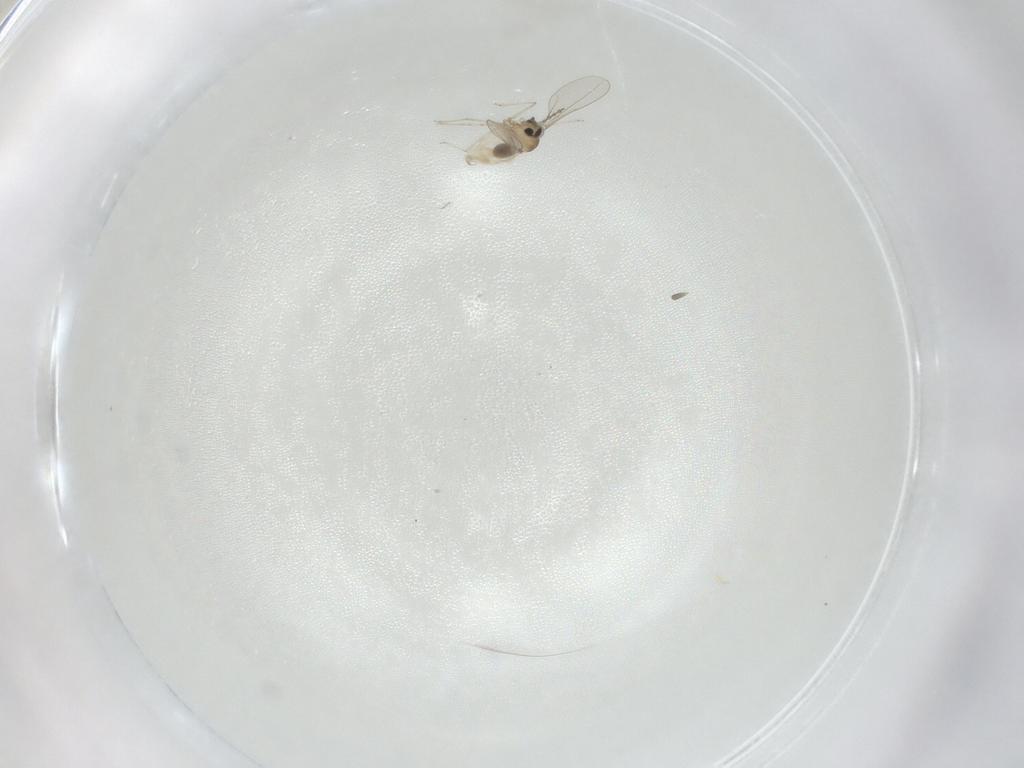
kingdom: Animalia
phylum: Arthropoda
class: Insecta
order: Diptera
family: Cecidomyiidae
